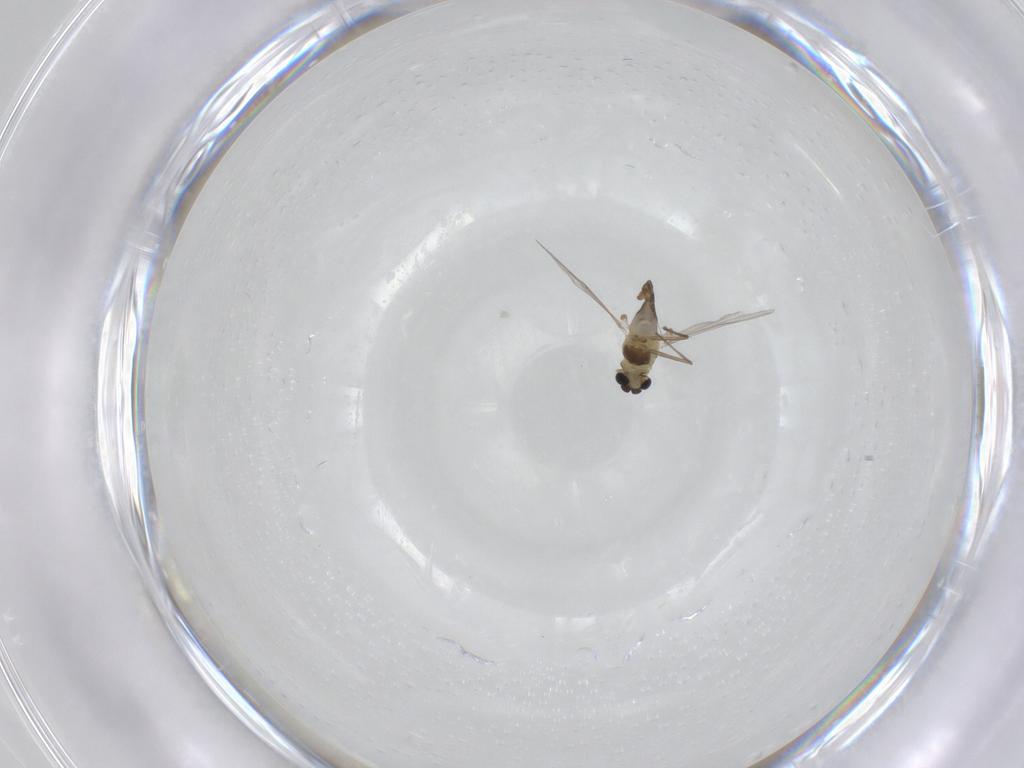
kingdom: Animalia
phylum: Arthropoda
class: Insecta
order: Diptera
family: Chironomidae
